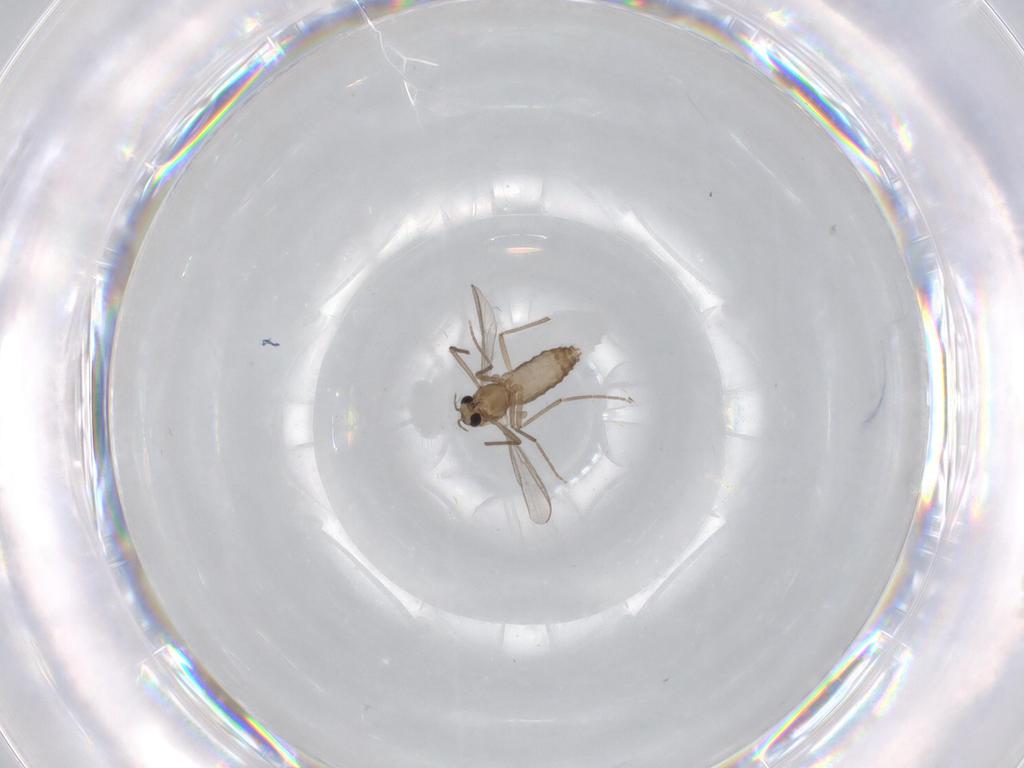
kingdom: Animalia
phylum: Arthropoda
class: Insecta
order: Diptera
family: Chironomidae
